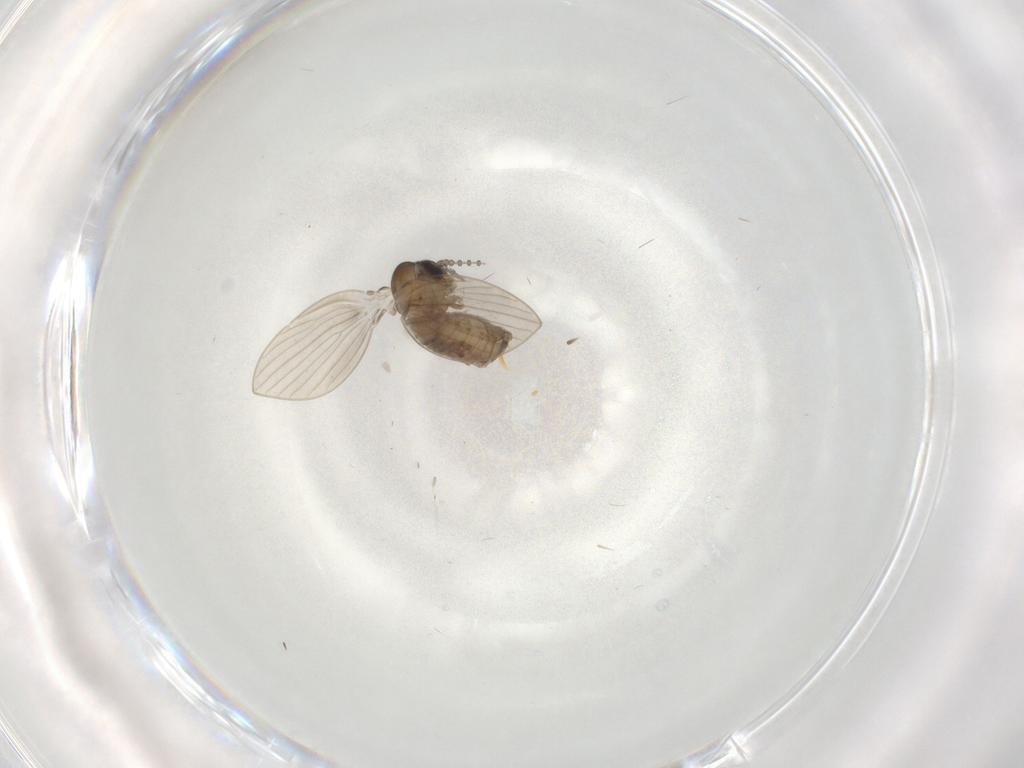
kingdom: Animalia
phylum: Arthropoda
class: Insecta
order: Diptera
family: Psychodidae
